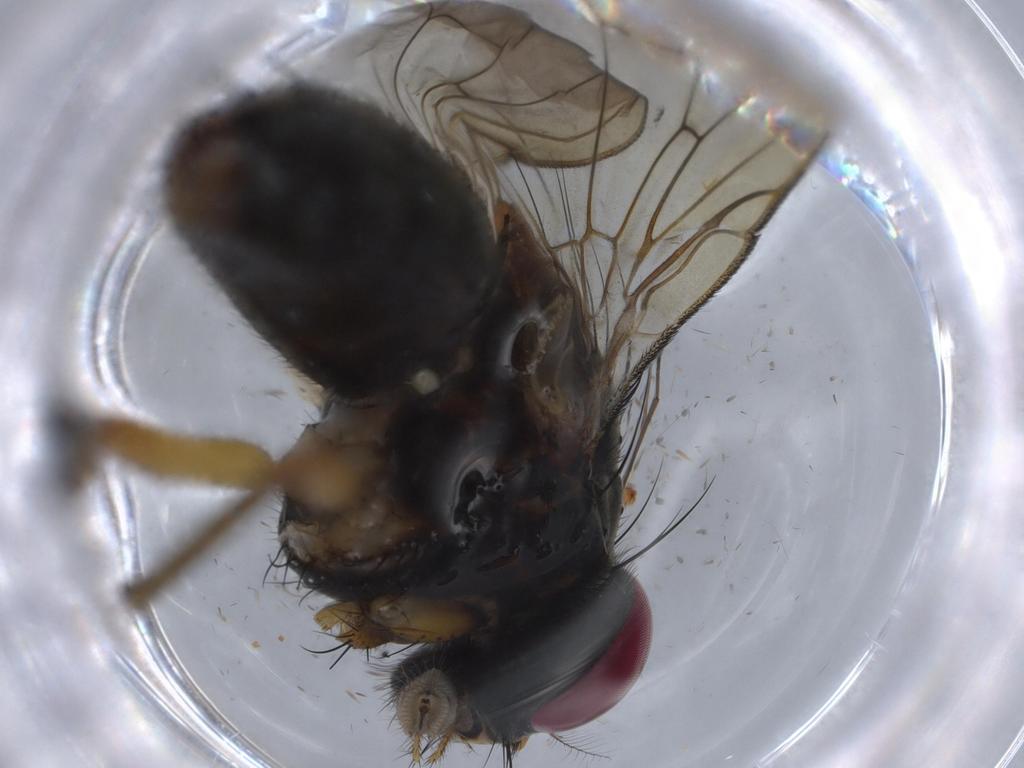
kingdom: Animalia
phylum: Arthropoda
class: Insecta
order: Diptera
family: Muscidae
